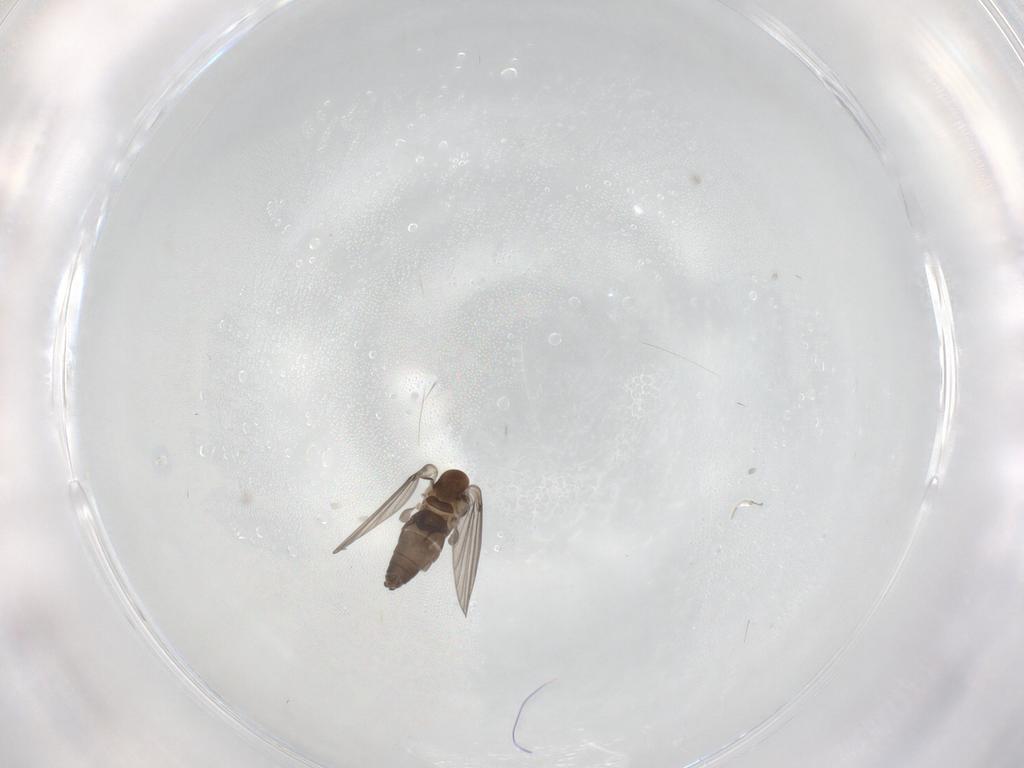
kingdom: Animalia
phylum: Arthropoda
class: Insecta
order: Diptera
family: Psychodidae
